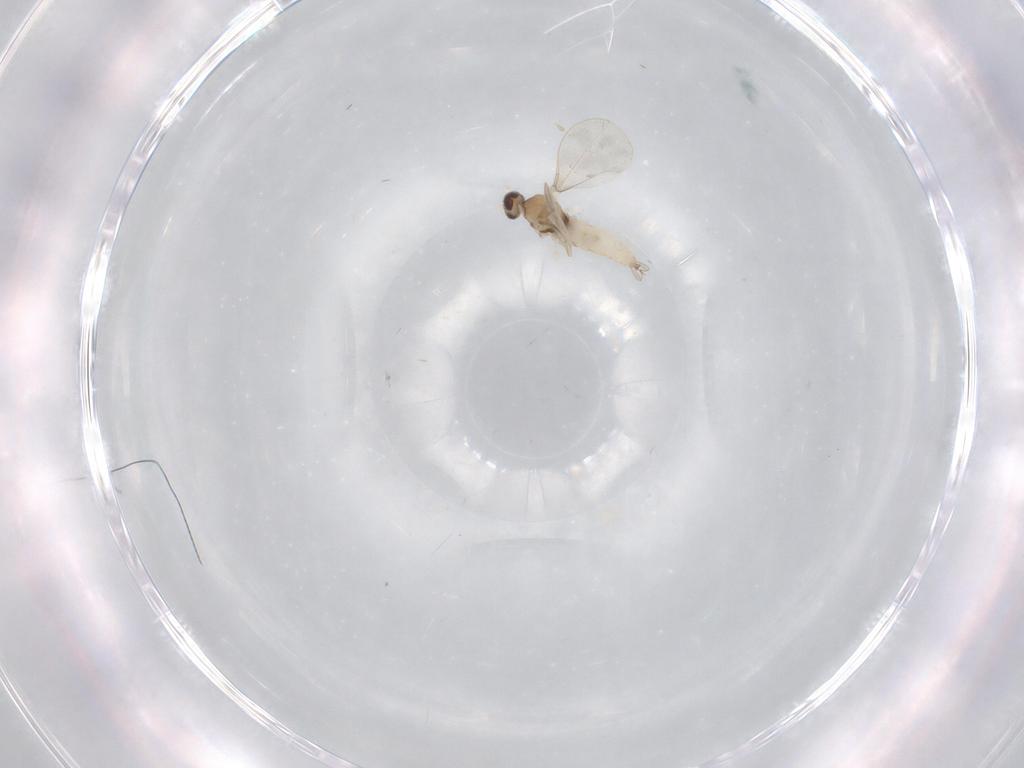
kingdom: Animalia
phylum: Arthropoda
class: Insecta
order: Diptera
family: Cecidomyiidae
